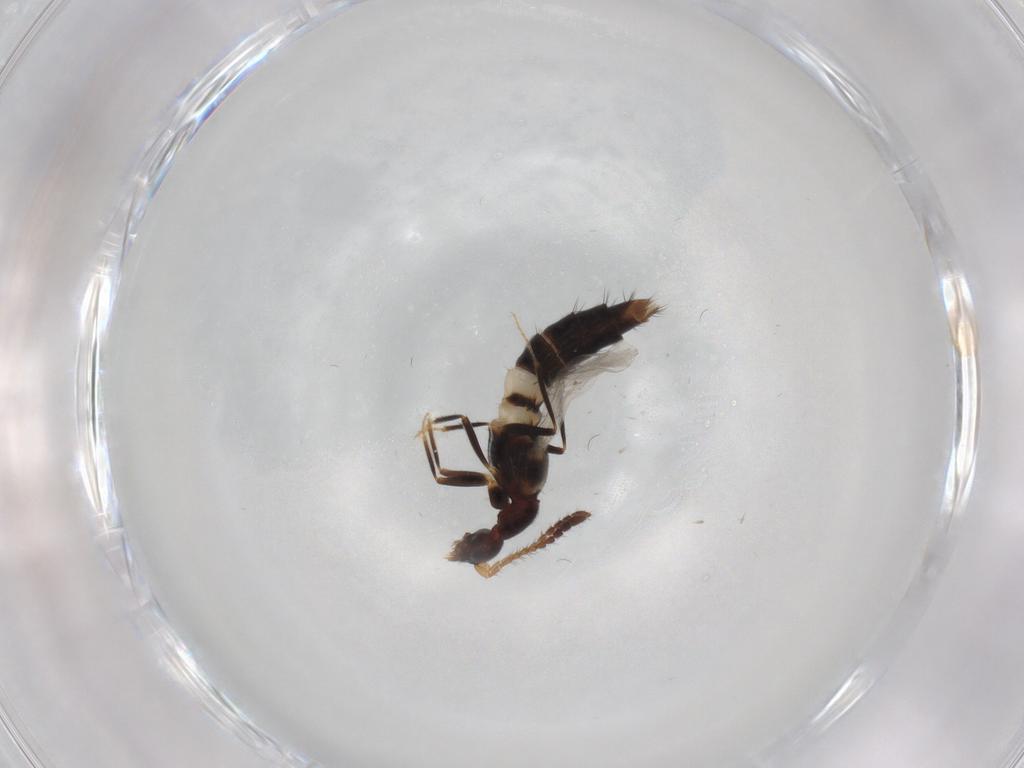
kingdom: Animalia
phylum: Arthropoda
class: Insecta
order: Coleoptera
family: Staphylinidae
